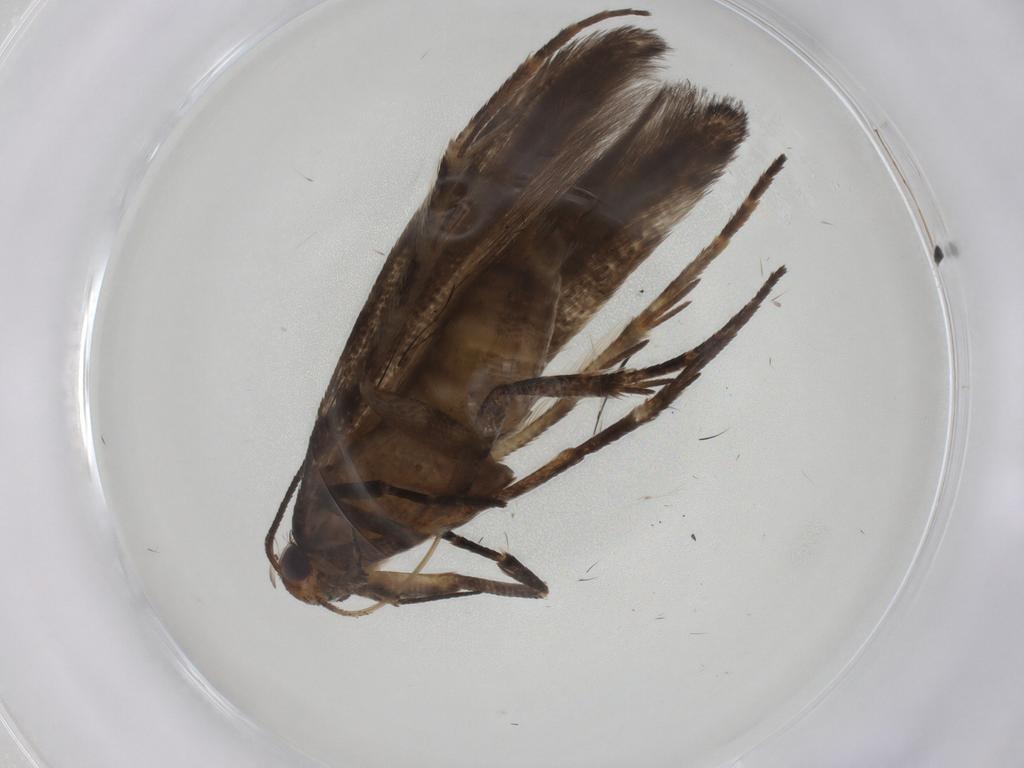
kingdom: Animalia
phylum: Arthropoda
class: Insecta
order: Lepidoptera
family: Gelechiidae
